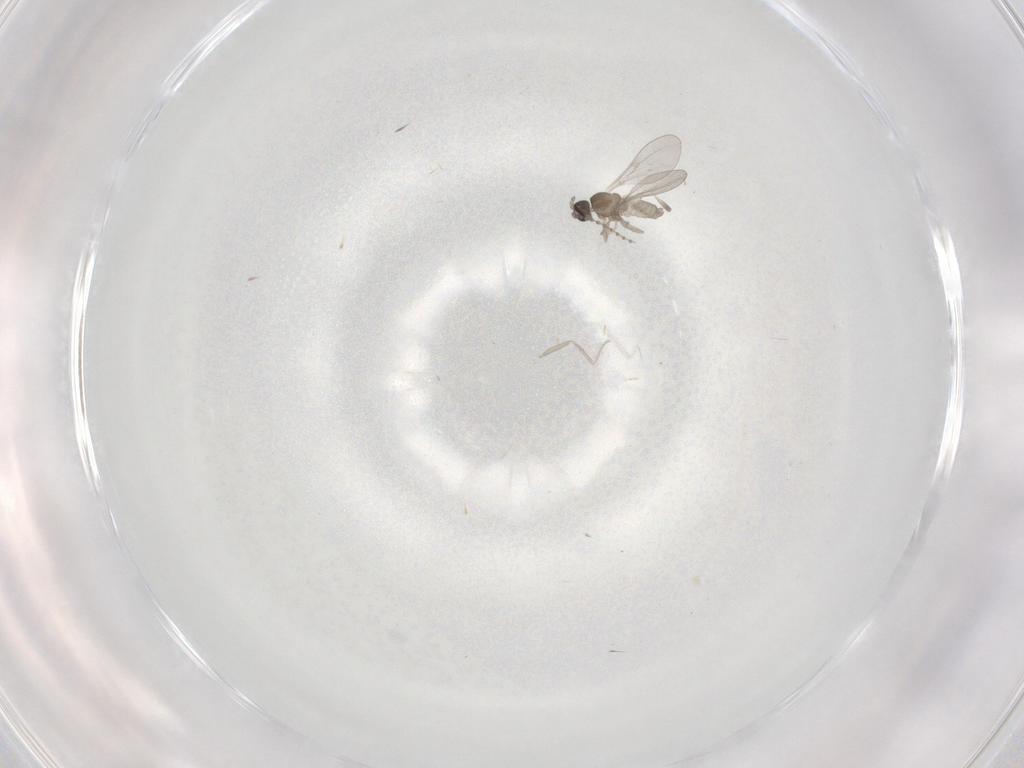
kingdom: Animalia
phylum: Arthropoda
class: Insecta
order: Diptera
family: Cecidomyiidae
